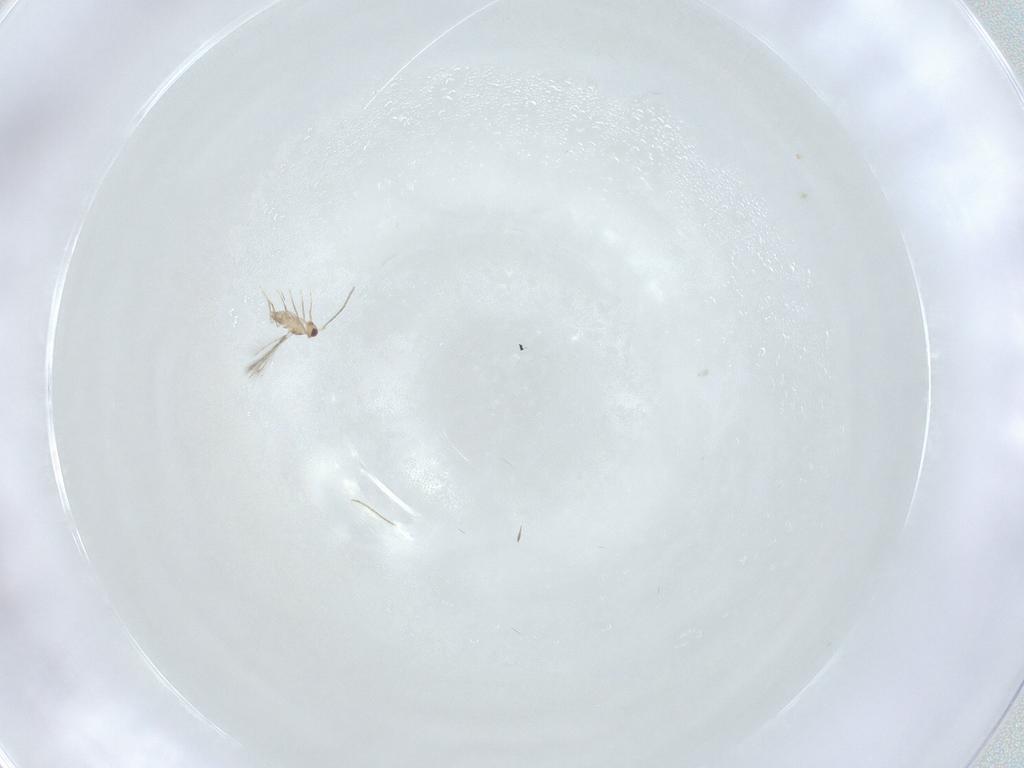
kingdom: Animalia
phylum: Arthropoda
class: Insecta
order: Hymenoptera
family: Mymaridae
